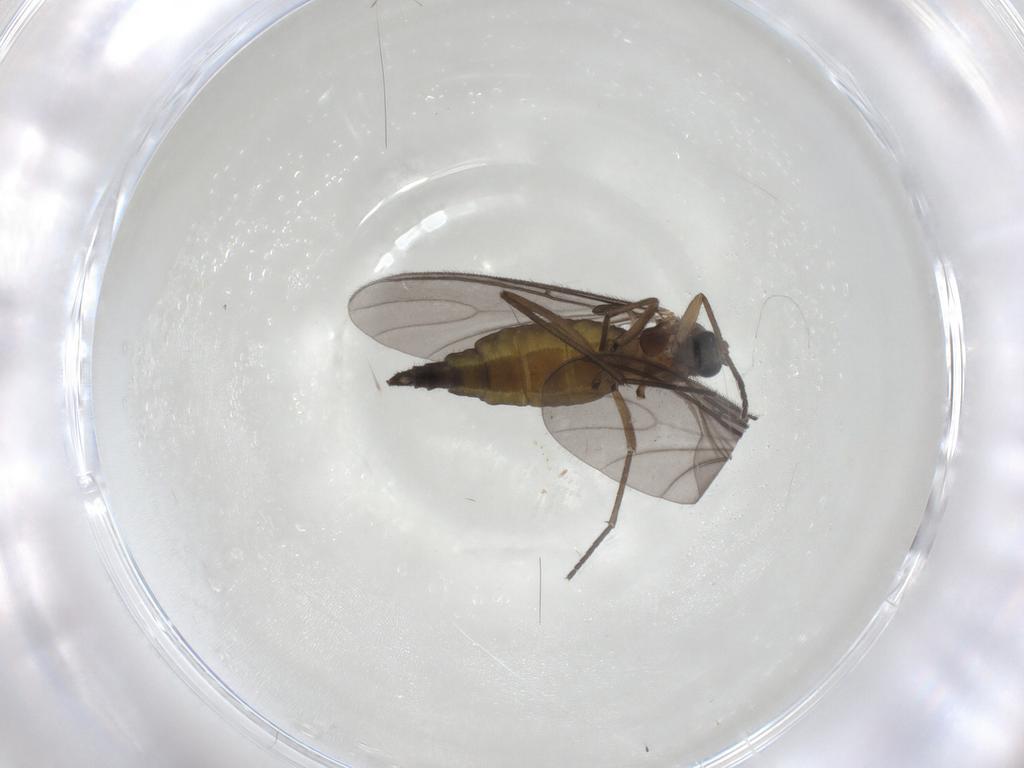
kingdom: Animalia
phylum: Arthropoda
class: Insecta
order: Diptera
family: Sciaridae
